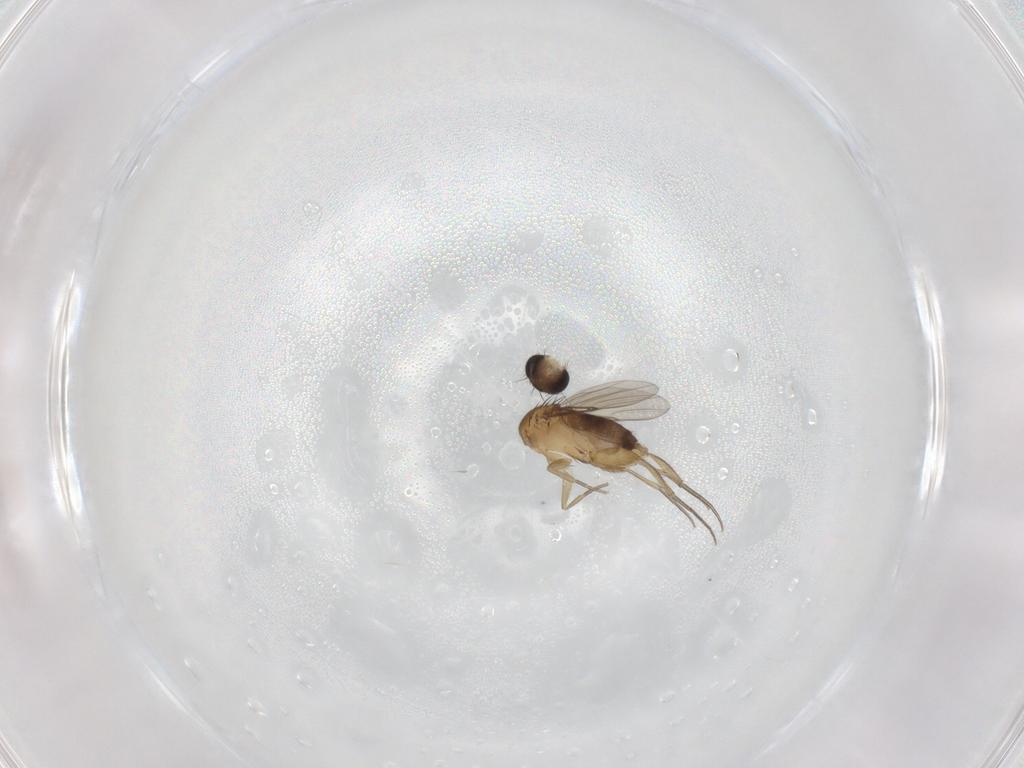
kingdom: Animalia
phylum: Arthropoda
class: Insecta
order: Diptera
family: Phoridae
